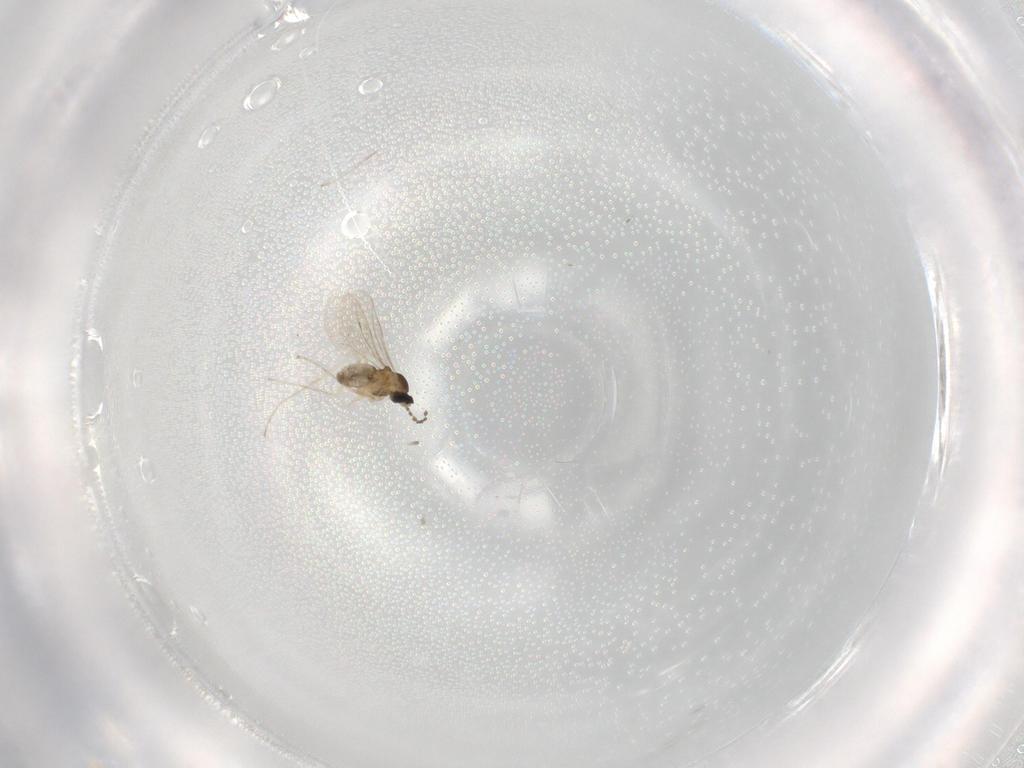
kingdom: Animalia
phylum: Arthropoda
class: Insecta
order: Diptera
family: Cecidomyiidae
